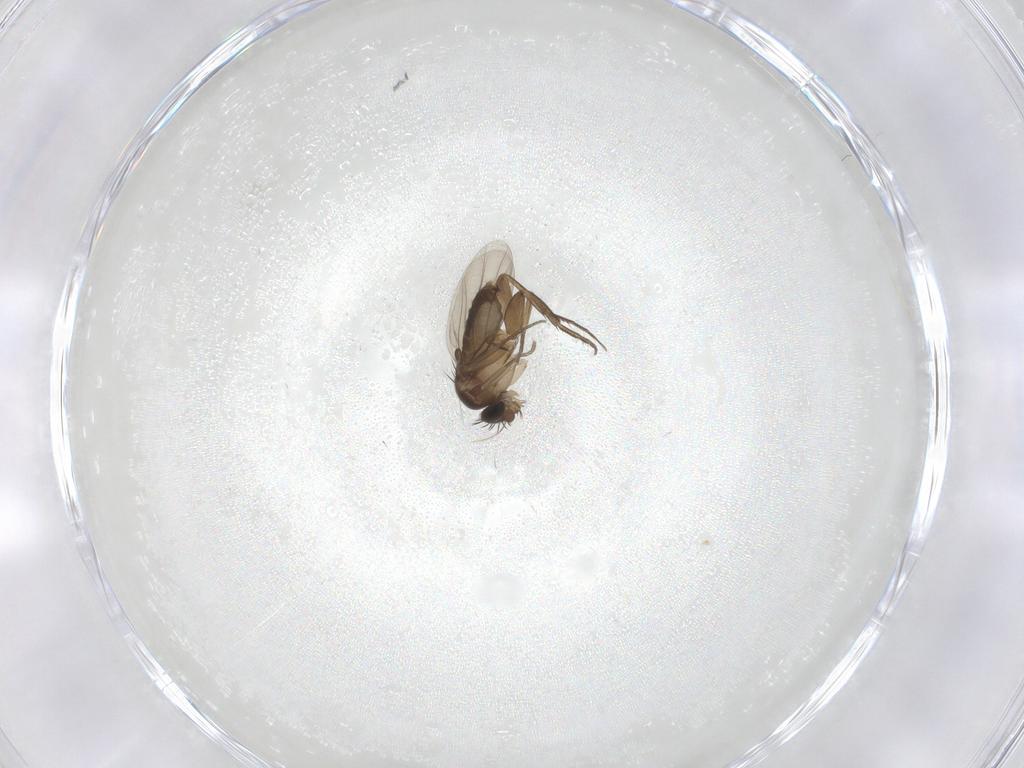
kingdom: Animalia
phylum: Arthropoda
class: Insecta
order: Diptera
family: Phoridae
